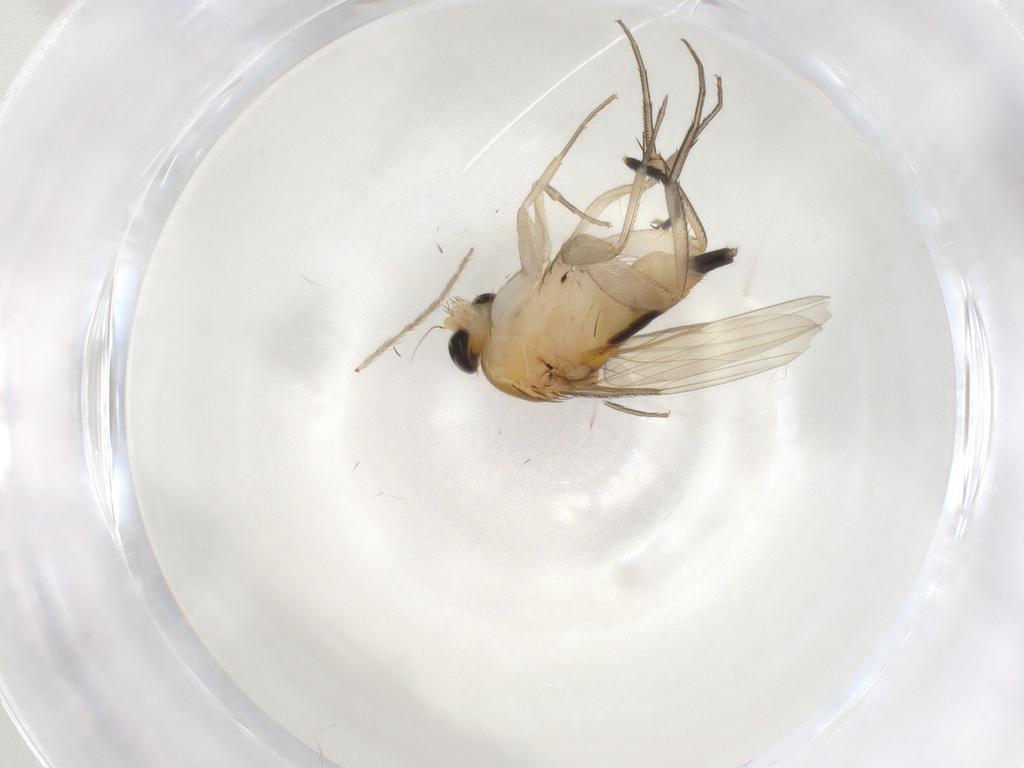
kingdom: Animalia
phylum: Arthropoda
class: Insecta
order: Diptera
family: Phoridae
